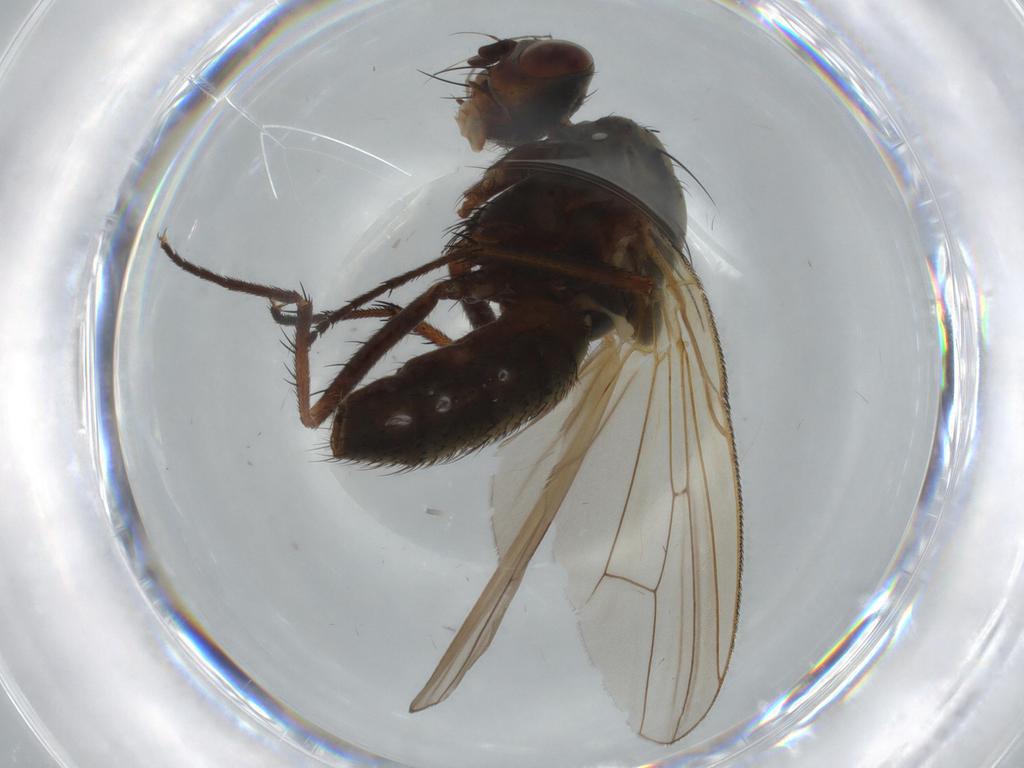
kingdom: Animalia
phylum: Arthropoda
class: Insecta
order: Diptera
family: Anthomyiidae
